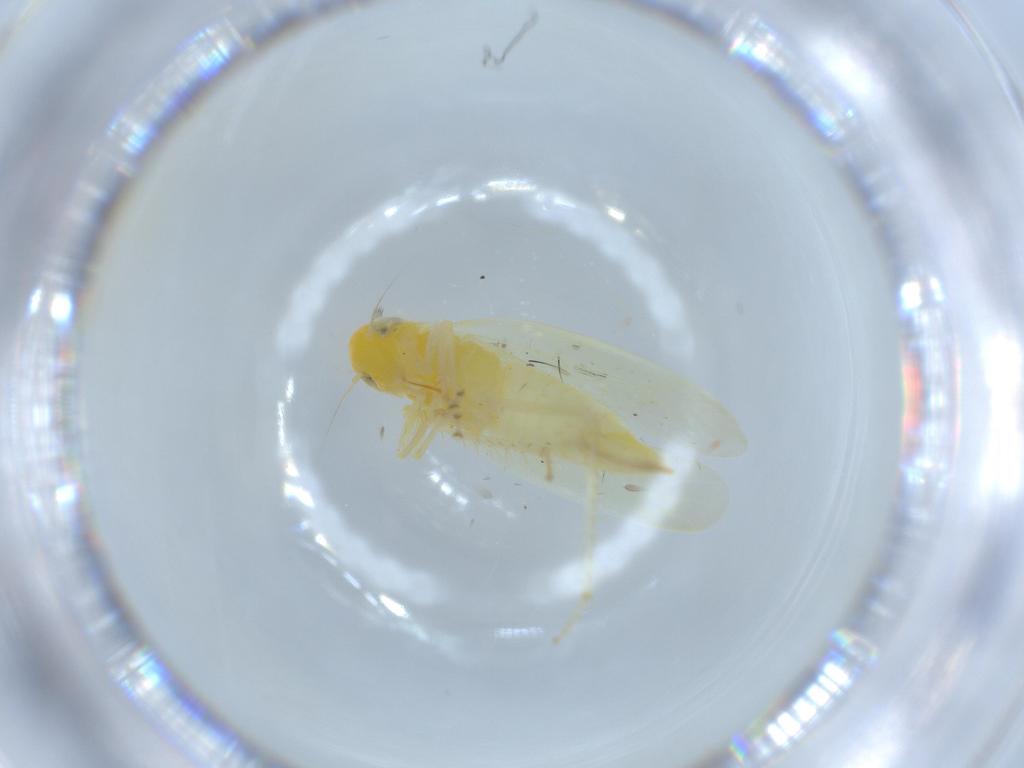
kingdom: Animalia
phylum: Arthropoda
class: Insecta
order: Hemiptera
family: Cicadellidae
